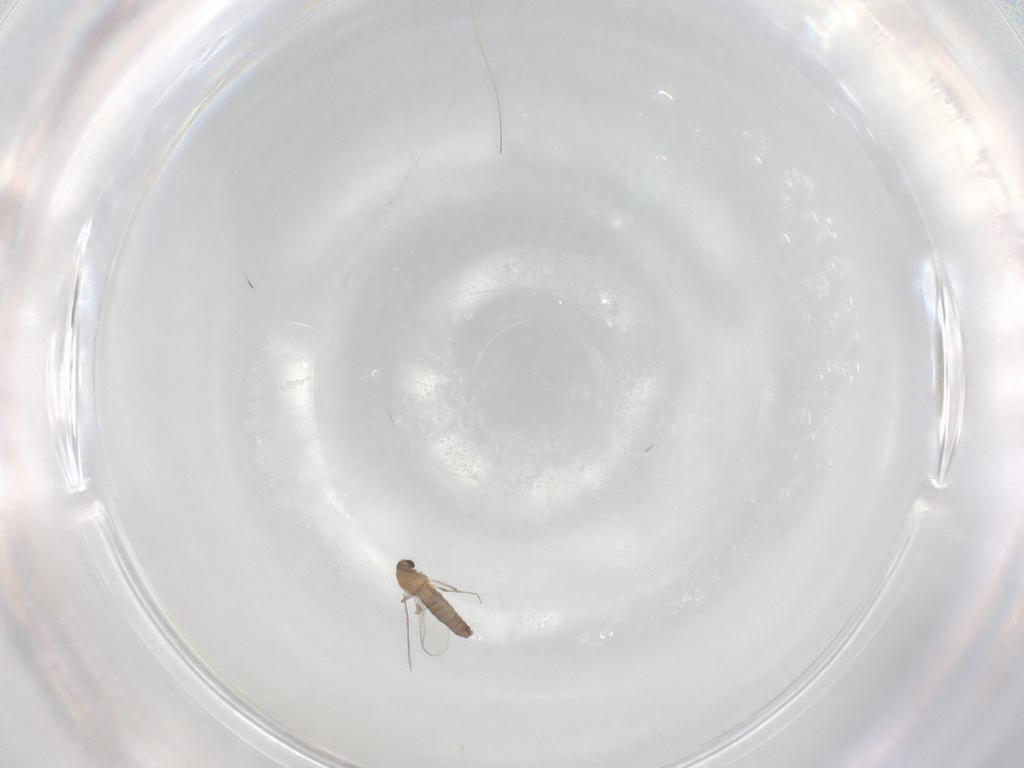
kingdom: Animalia
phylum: Arthropoda
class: Insecta
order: Diptera
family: Chironomidae
